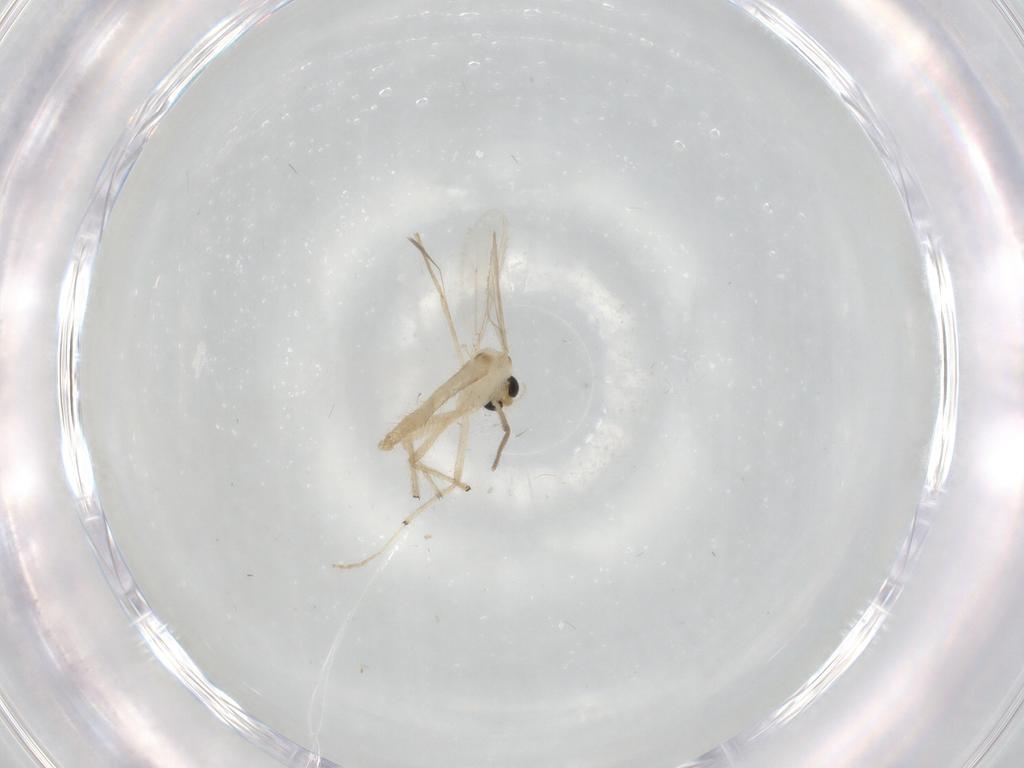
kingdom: Animalia
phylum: Arthropoda
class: Insecta
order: Diptera
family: Chironomidae
